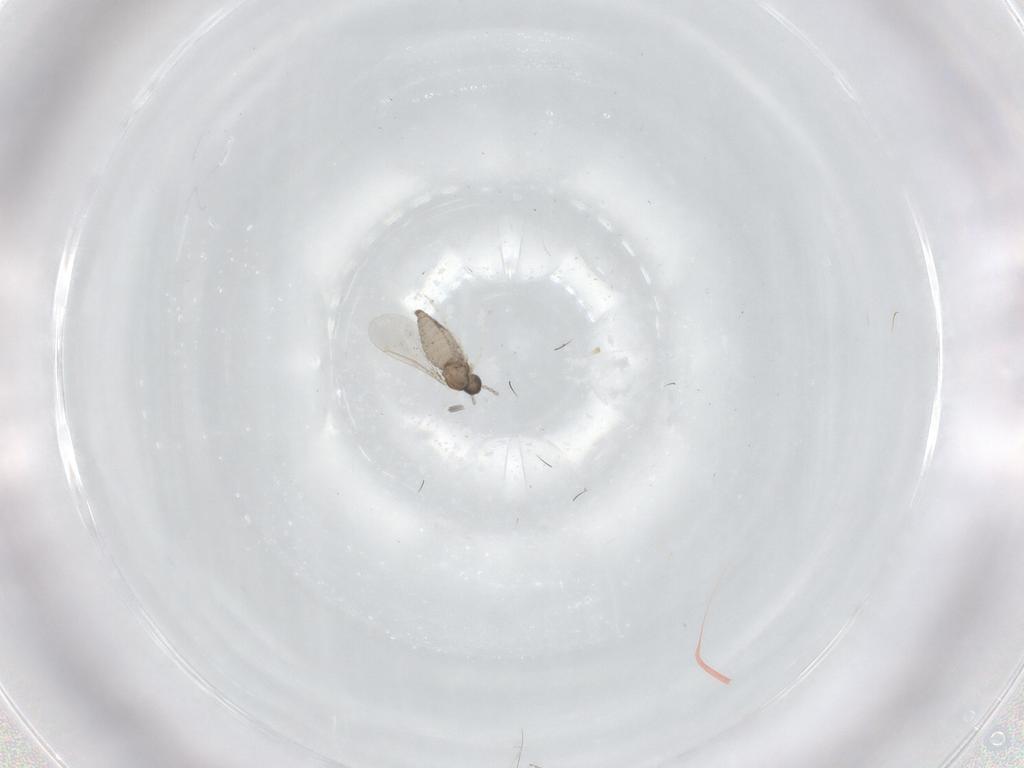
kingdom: Animalia
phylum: Arthropoda
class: Insecta
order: Diptera
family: Cecidomyiidae
